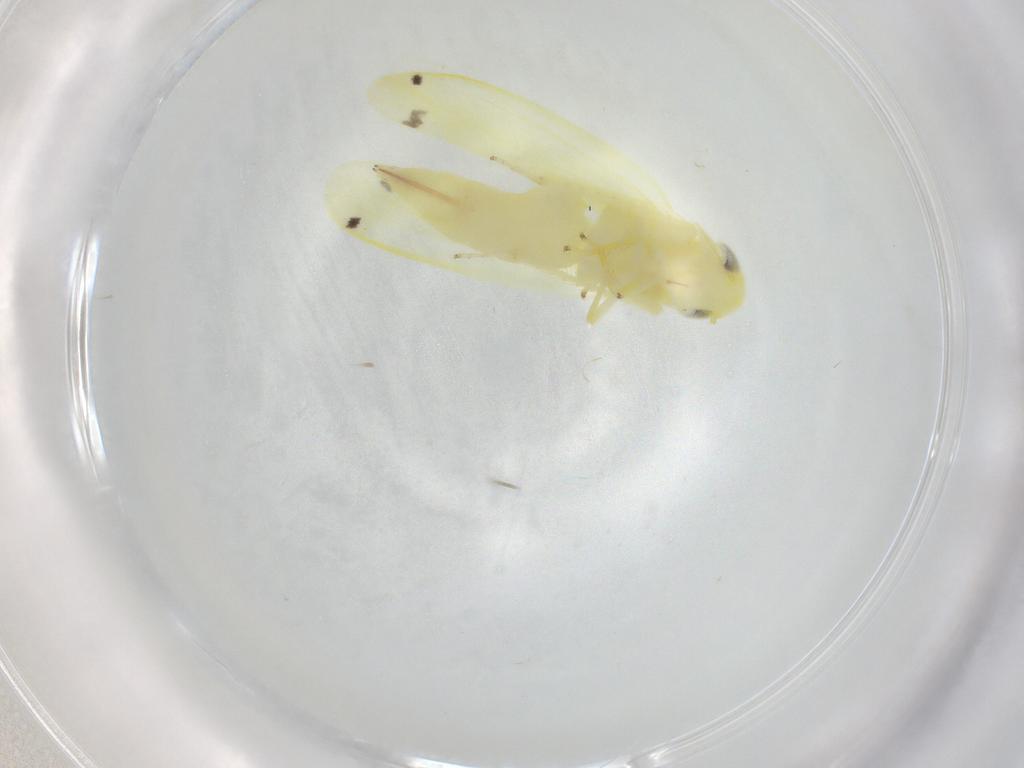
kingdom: Animalia
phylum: Arthropoda
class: Insecta
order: Hemiptera
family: Cicadellidae
